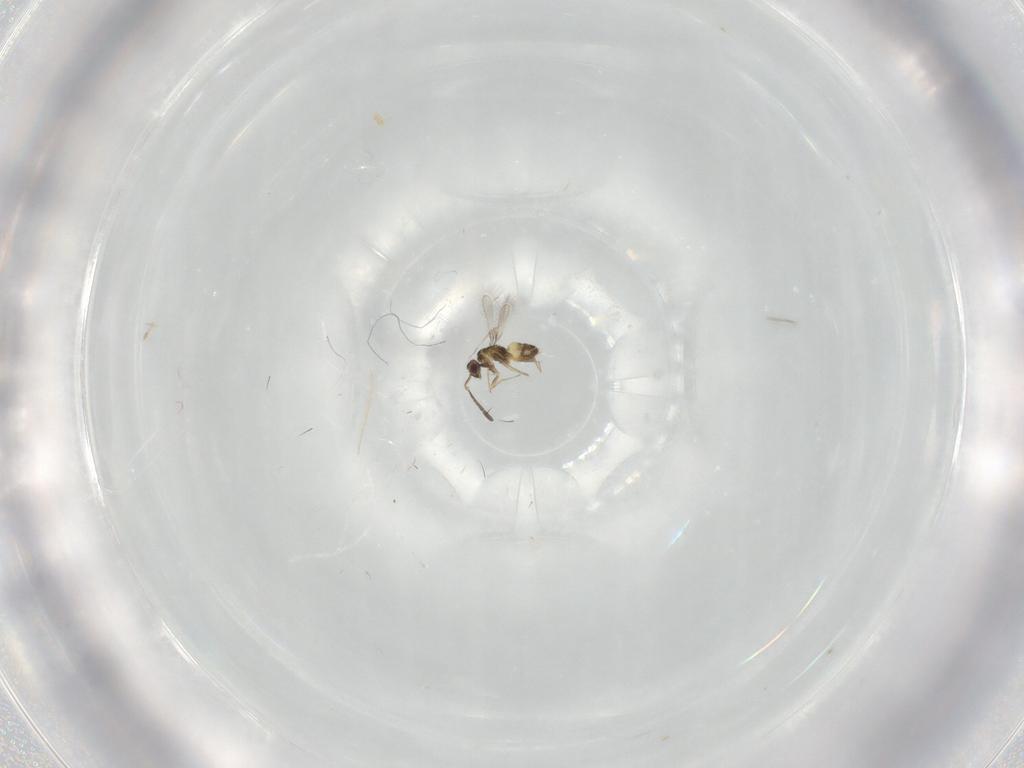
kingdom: Animalia
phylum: Arthropoda
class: Insecta
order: Hymenoptera
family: Mymaridae
